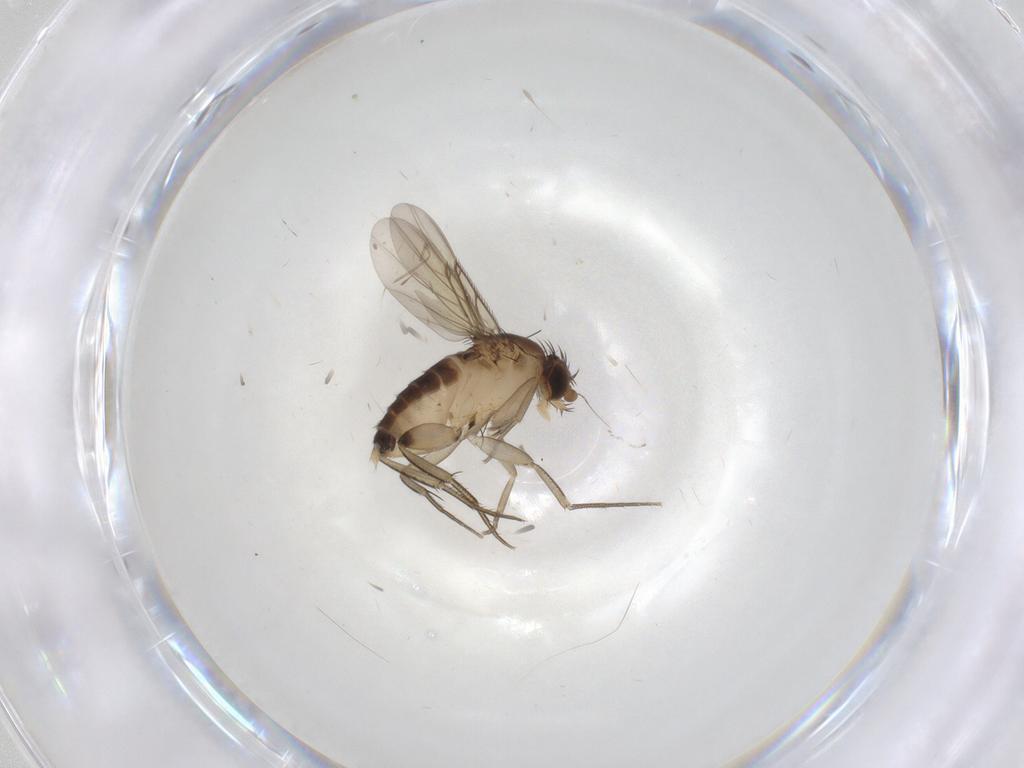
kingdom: Animalia
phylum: Arthropoda
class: Insecta
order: Diptera
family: Phoridae
